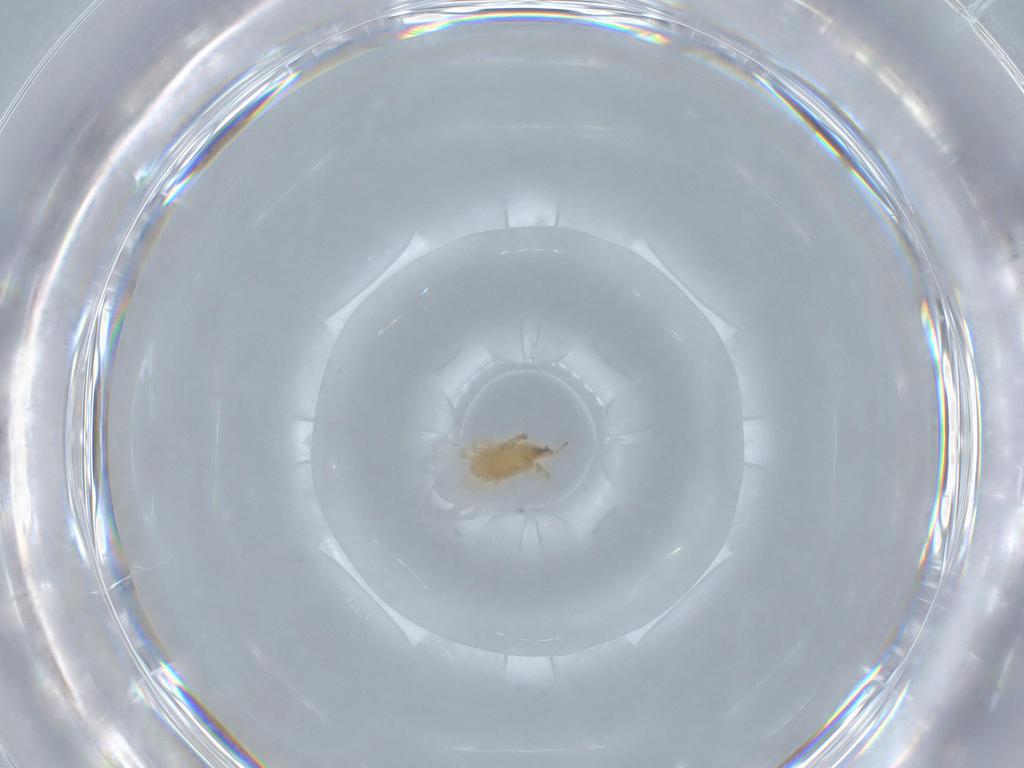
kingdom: Animalia
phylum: Arthropoda
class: Arachnida
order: Mesostigmata
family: Parasitidae
